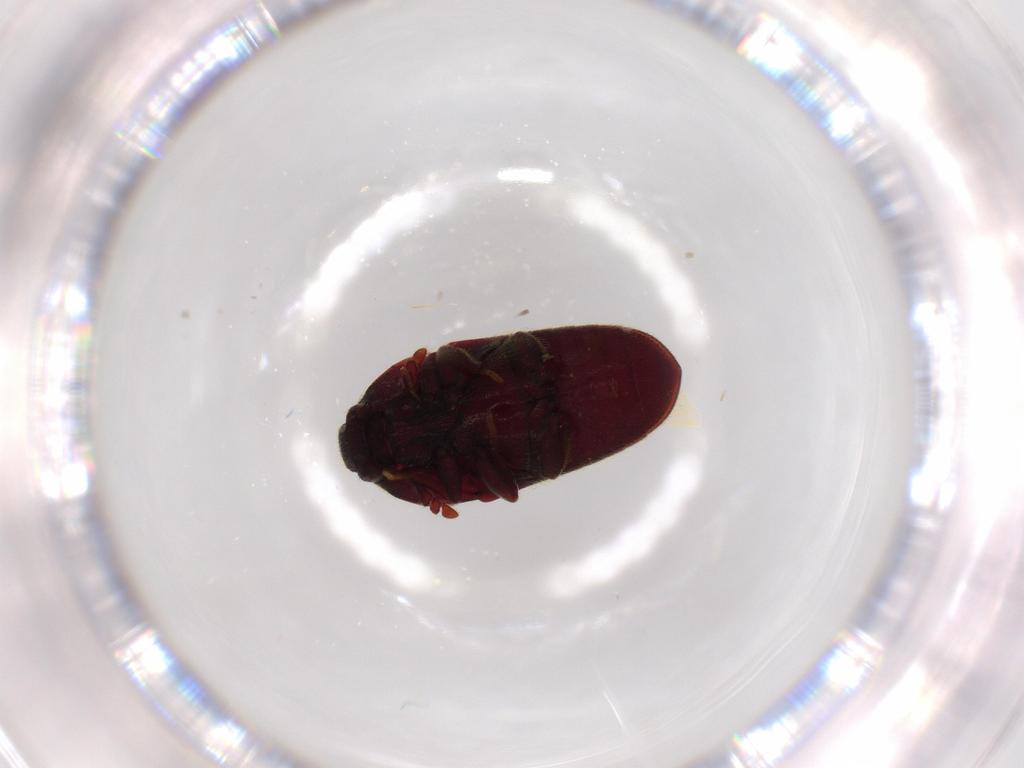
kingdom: Animalia
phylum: Arthropoda
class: Insecta
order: Coleoptera
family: Throscidae
